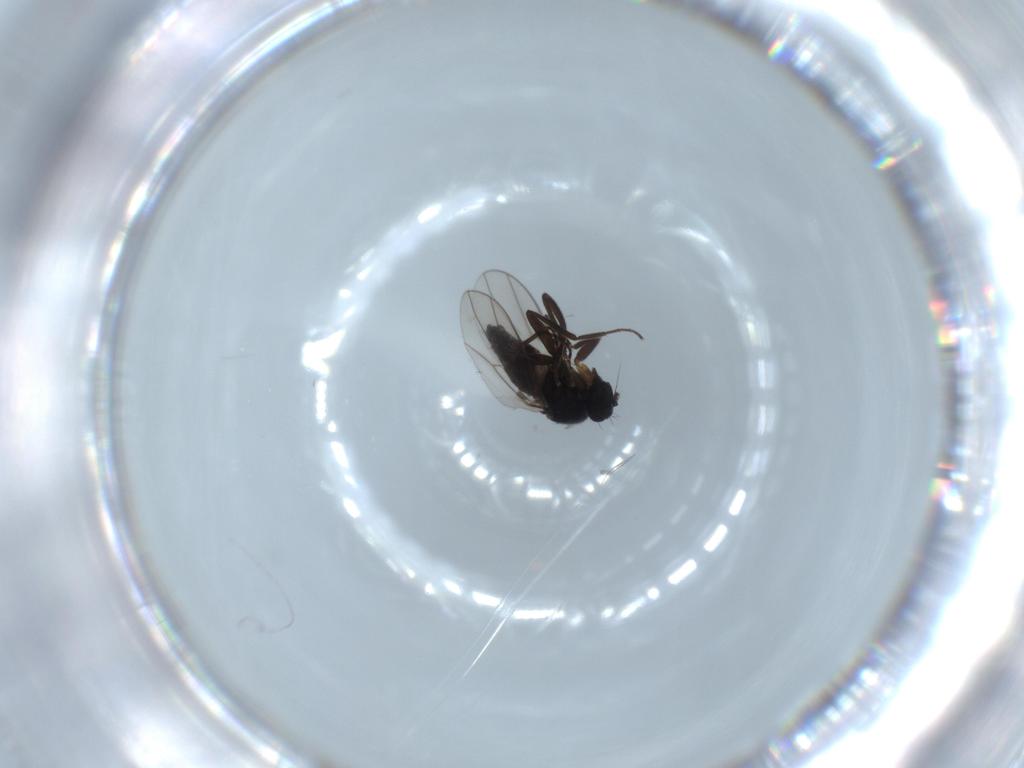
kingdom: Animalia
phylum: Arthropoda
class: Insecta
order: Diptera
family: Hybotidae
